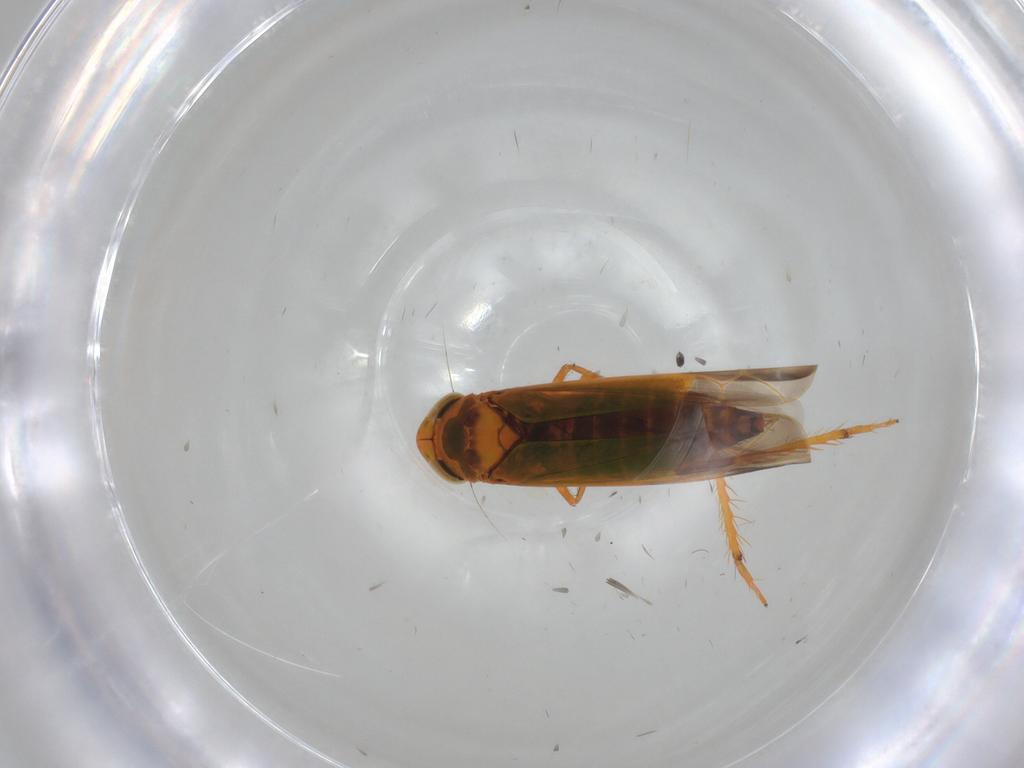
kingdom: Animalia
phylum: Arthropoda
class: Insecta
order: Hemiptera
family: Cicadellidae
